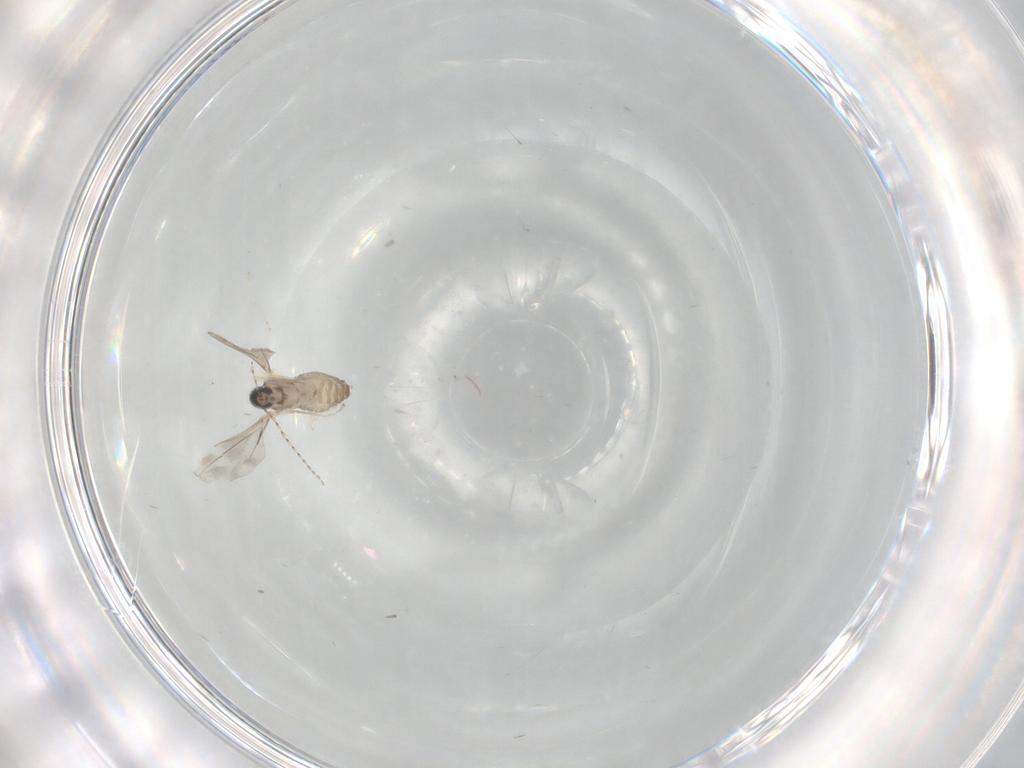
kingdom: Animalia
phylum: Arthropoda
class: Insecta
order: Diptera
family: Cecidomyiidae
